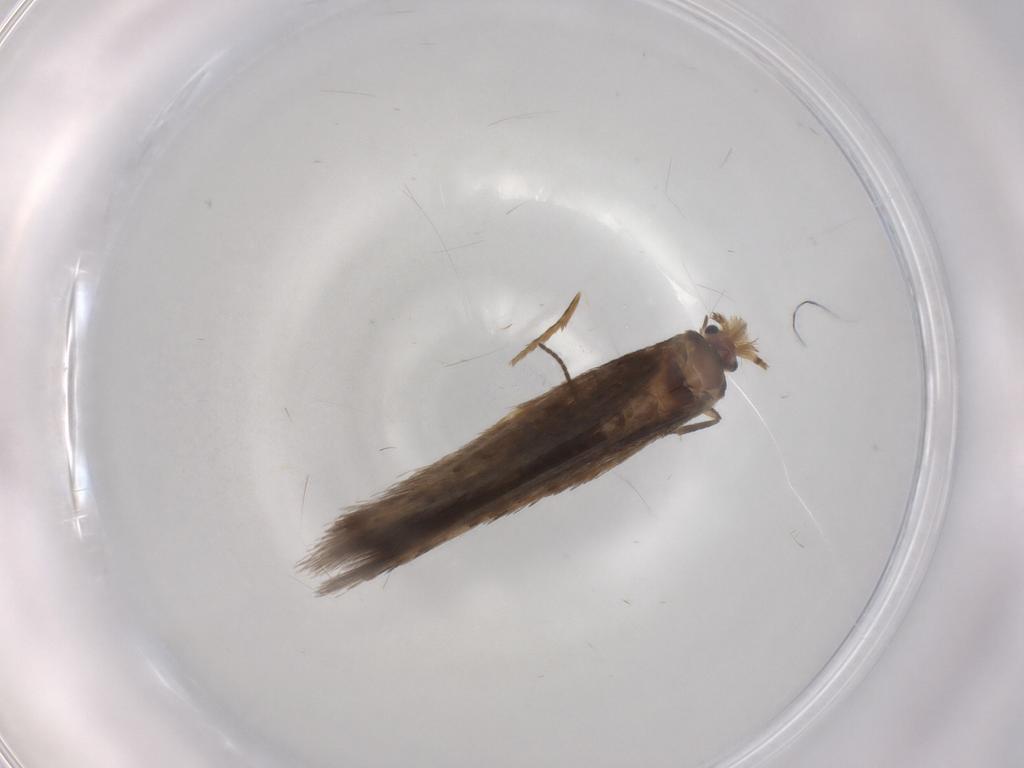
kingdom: Animalia
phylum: Arthropoda
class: Insecta
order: Lepidoptera
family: Nepticulidae
